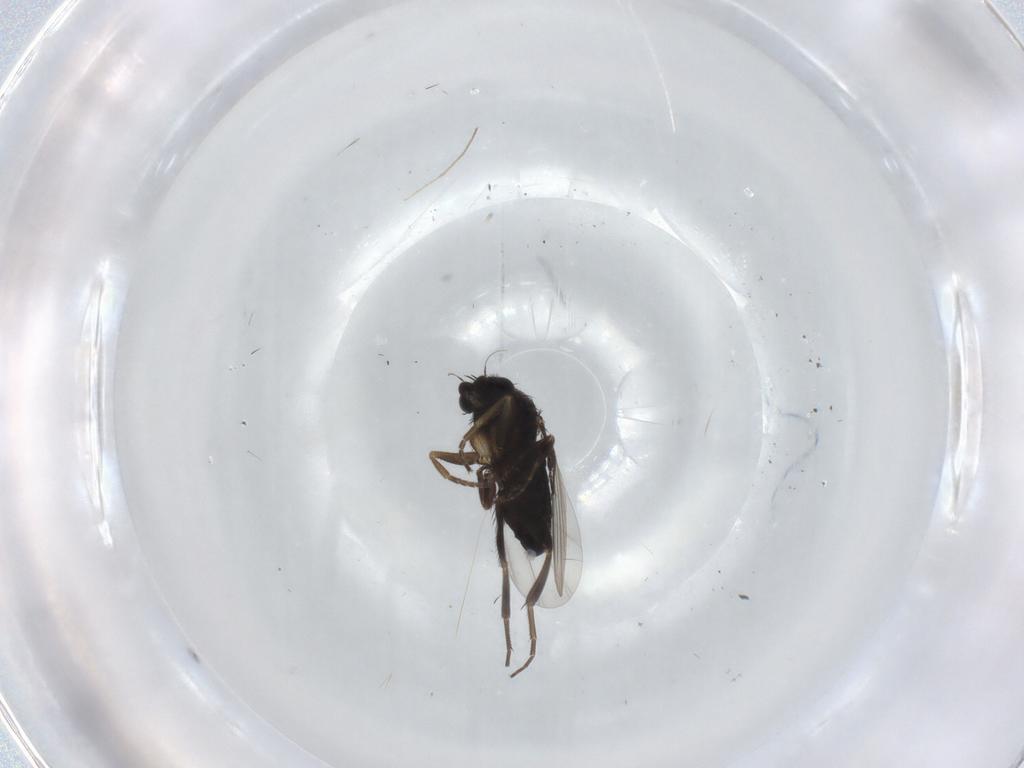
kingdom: Animalia
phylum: Arthropoda
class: Insecta
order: Diptera
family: Phoridae
